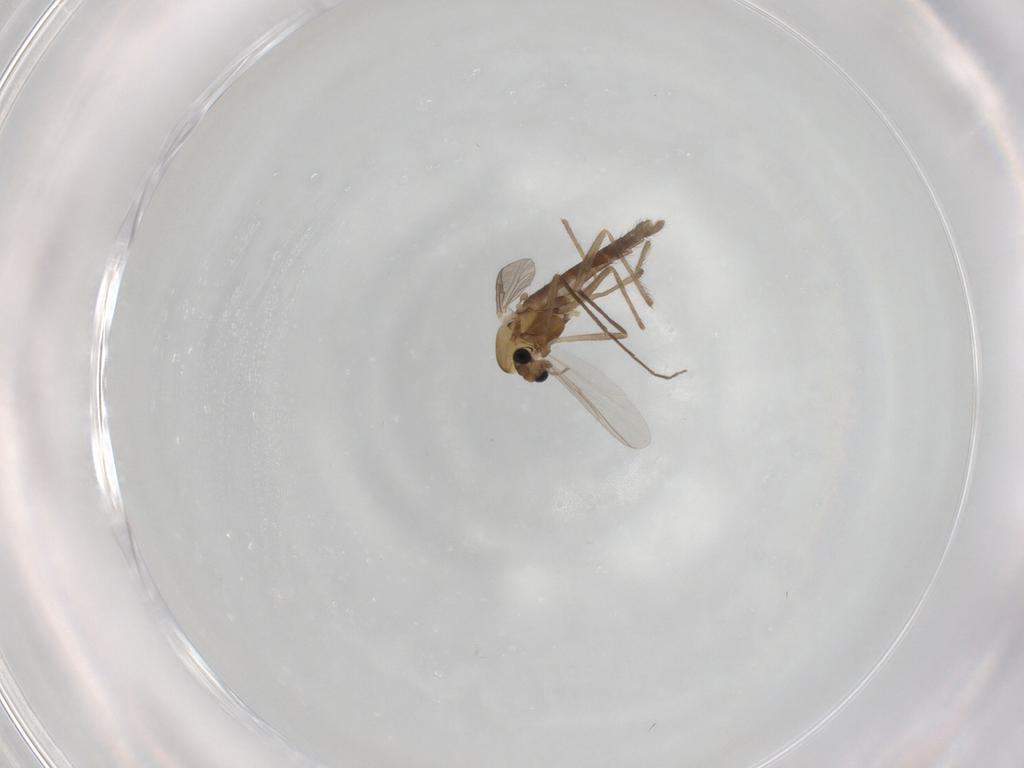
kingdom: Animalia
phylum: Arthropoda
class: Insecta
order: Diptera
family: Chironomidae
